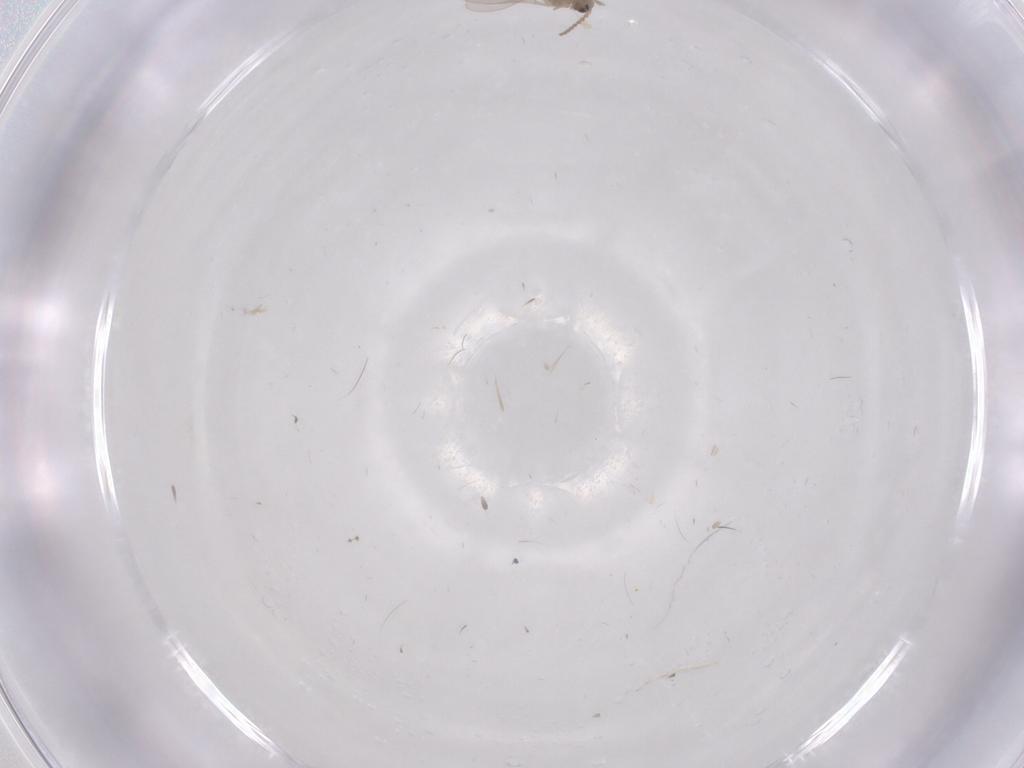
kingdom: Animalia
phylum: Arthropoda
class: Insecta
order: Diptera
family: Cecidomyiidae
